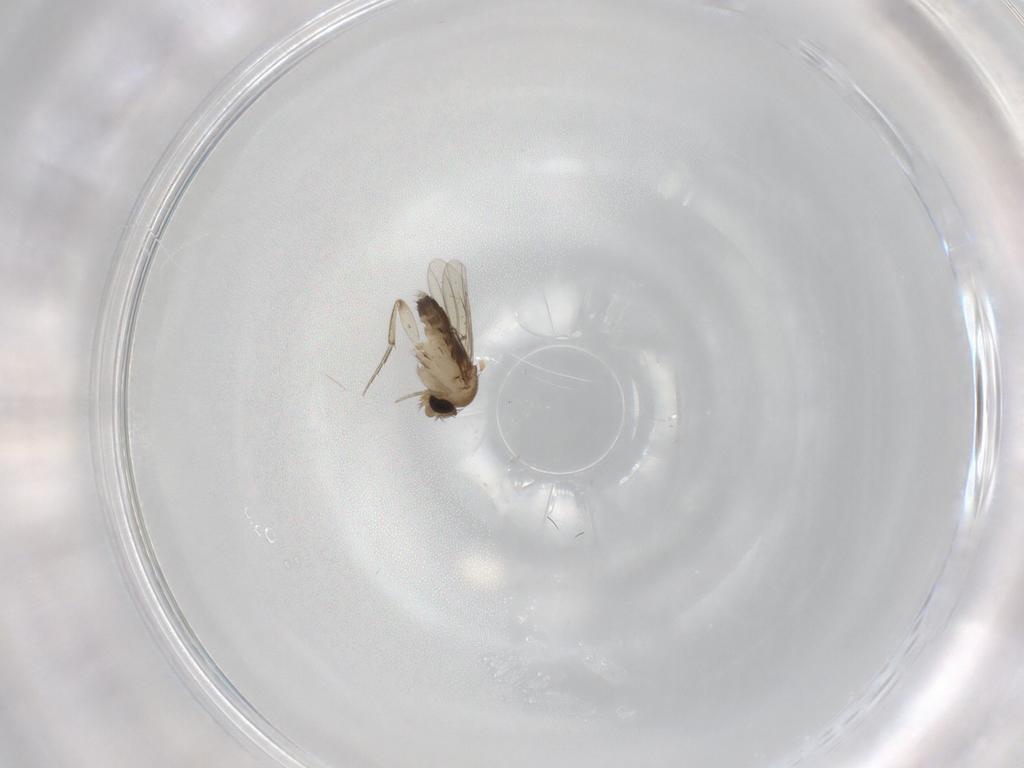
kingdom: Animalia
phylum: Arthropoda
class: Insecta
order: Diptera
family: Phoridae
